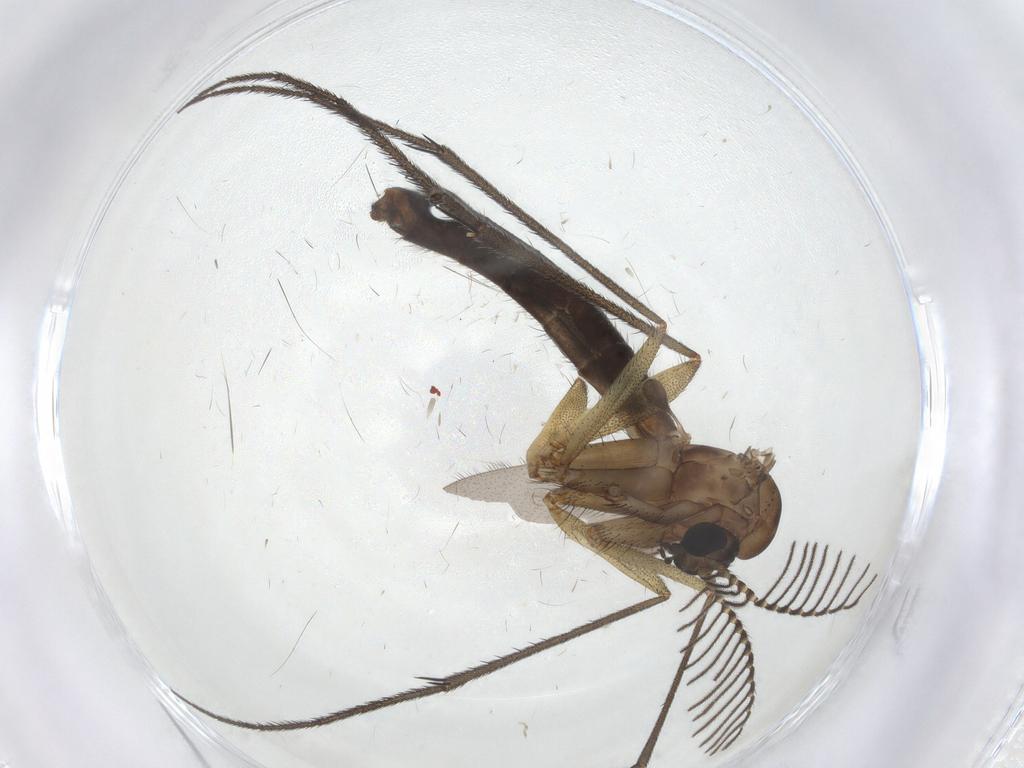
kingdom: Animalia
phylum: Arthropoda
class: Insecta
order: Diptera
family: Ditomyiidae
